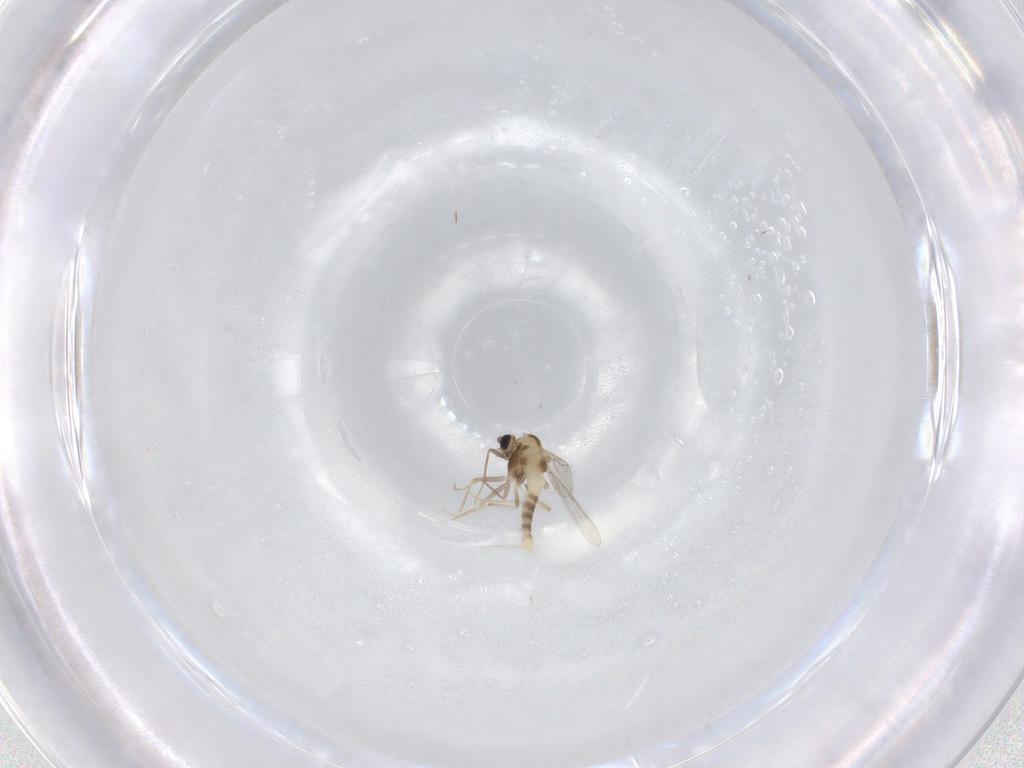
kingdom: Animalia
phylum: Arthropoda
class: Insecta
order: Diptera
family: Chironomidae
